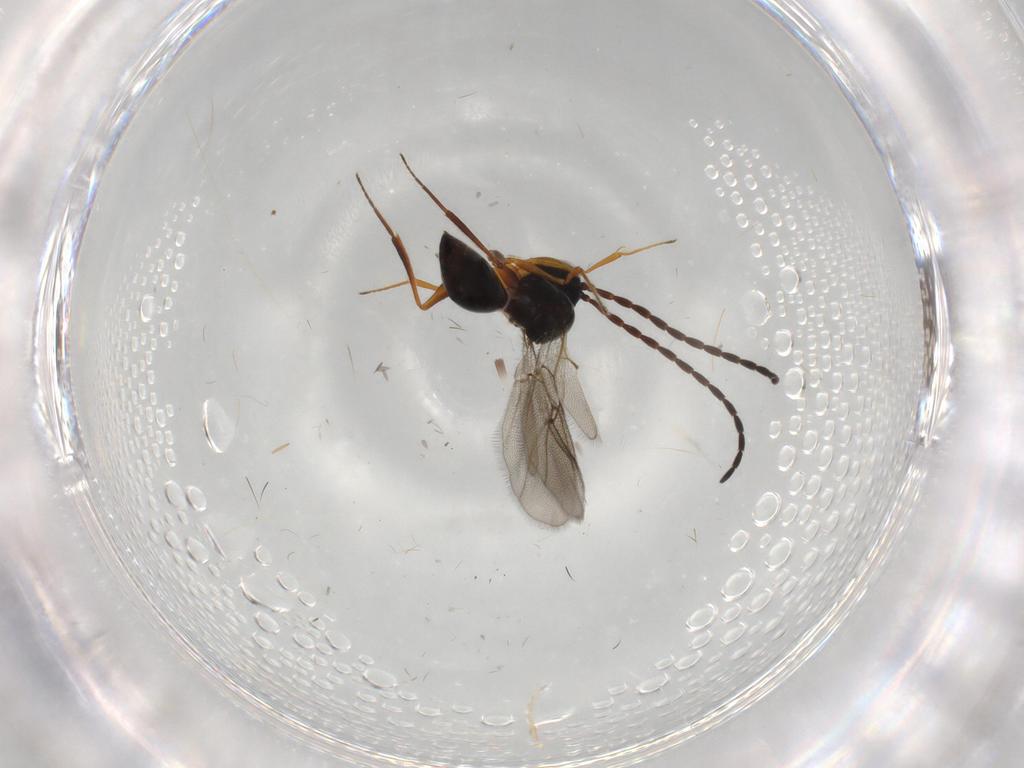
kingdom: Animalia
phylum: Arthropoda
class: Insecta
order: Hymenoptera
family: Figitidae
